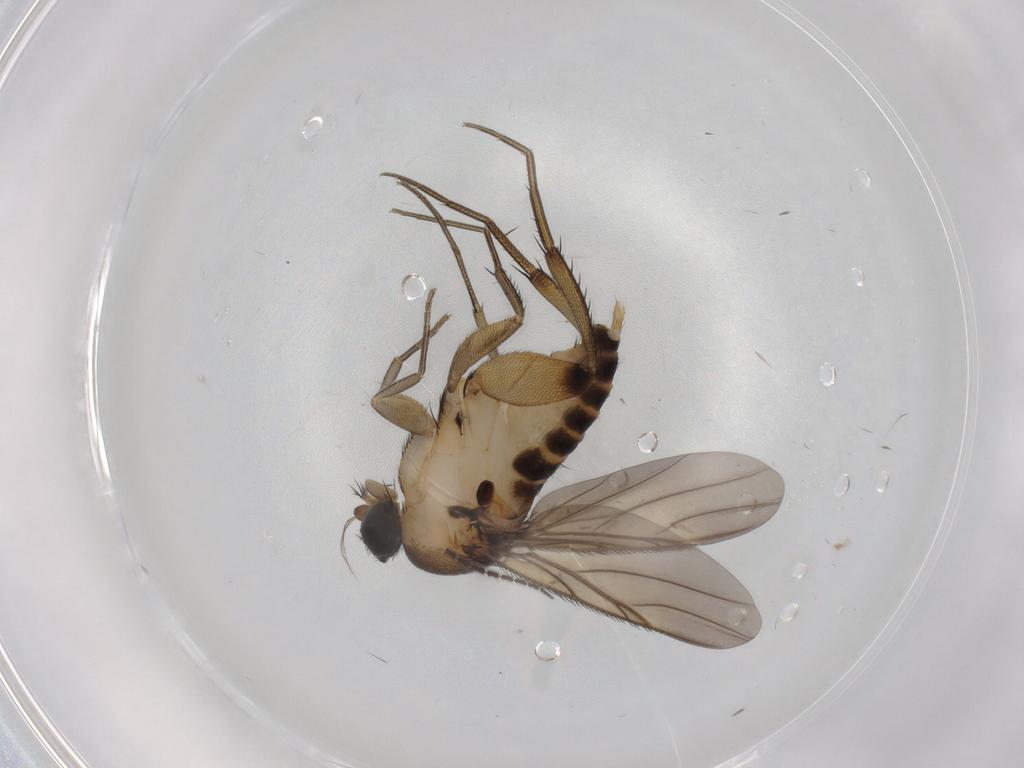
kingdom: Animalia
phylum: Arthropoda
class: Insecta
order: Diptera
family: Phoridae
